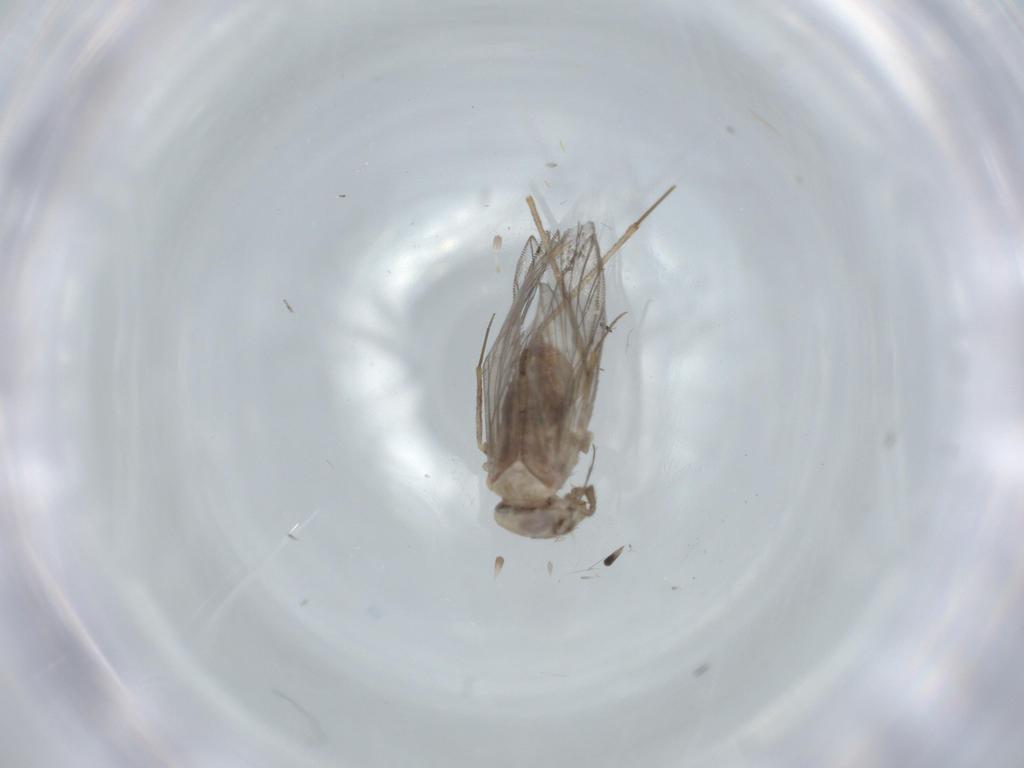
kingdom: Animalia
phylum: Arthropoda
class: Insecta
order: Psocodea
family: Lepidopsocidae
